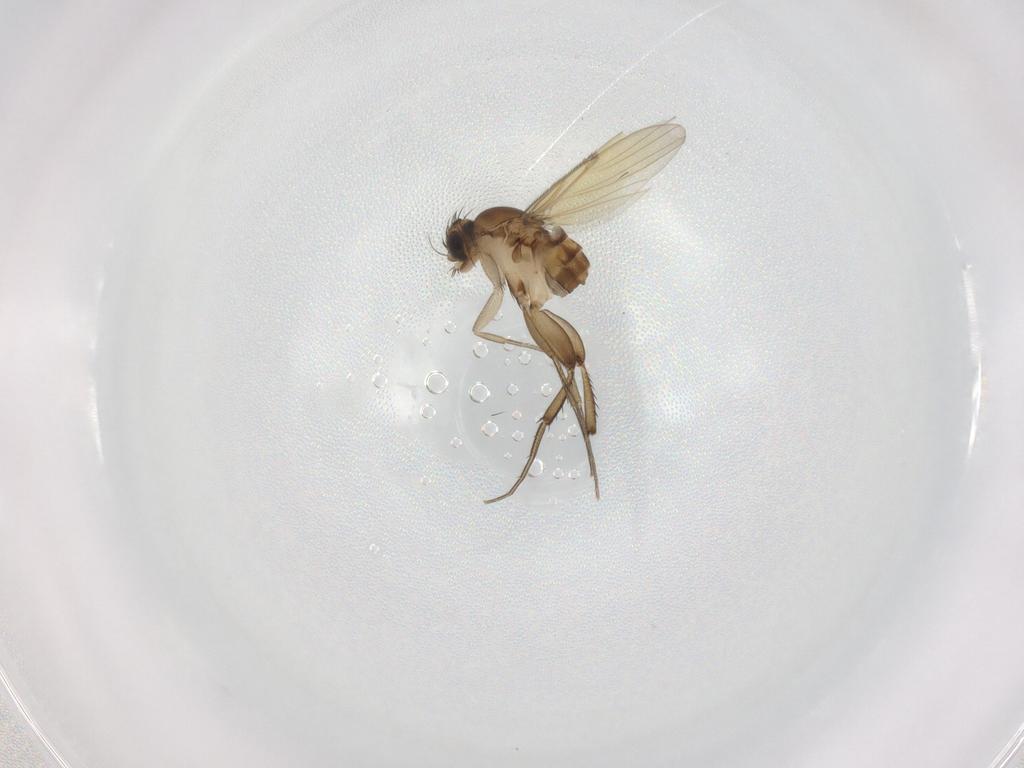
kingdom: Animalia
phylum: Arthropoda
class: Insecta
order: Diptera
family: Phoridae
